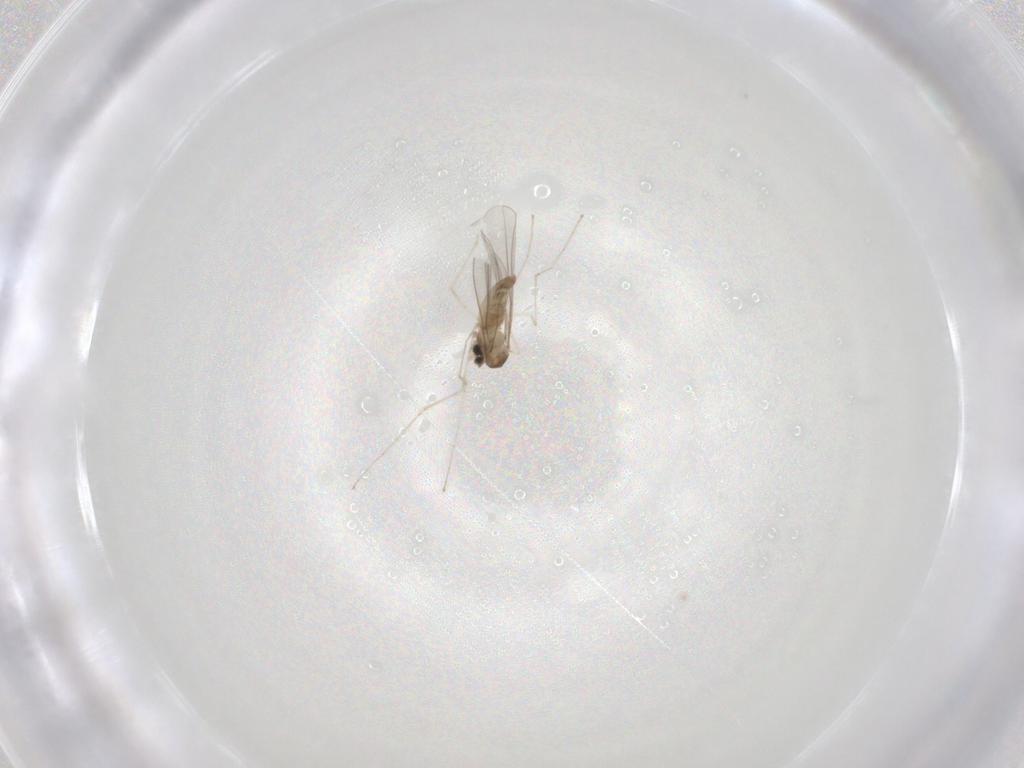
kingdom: Animalia
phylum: Arthropoda
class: Insecta
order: Diptera
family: Cecidomyiidae
